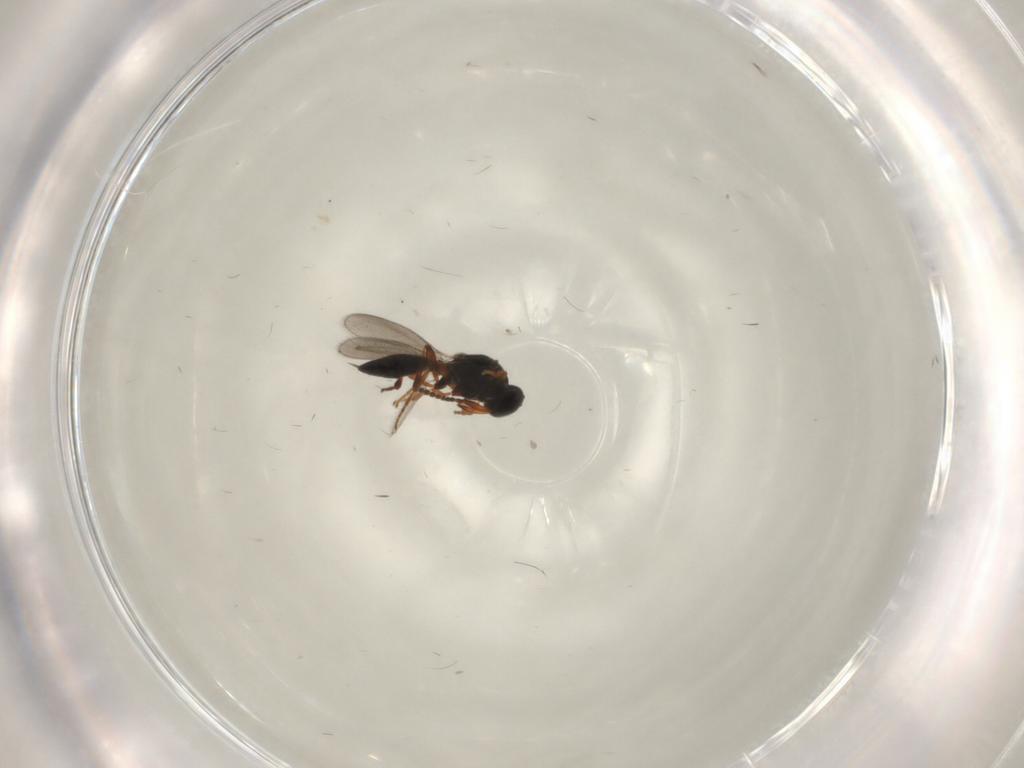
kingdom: Animalia
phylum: Arthropoda
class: Insecta
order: Hymenoptera
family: Platygastridae
